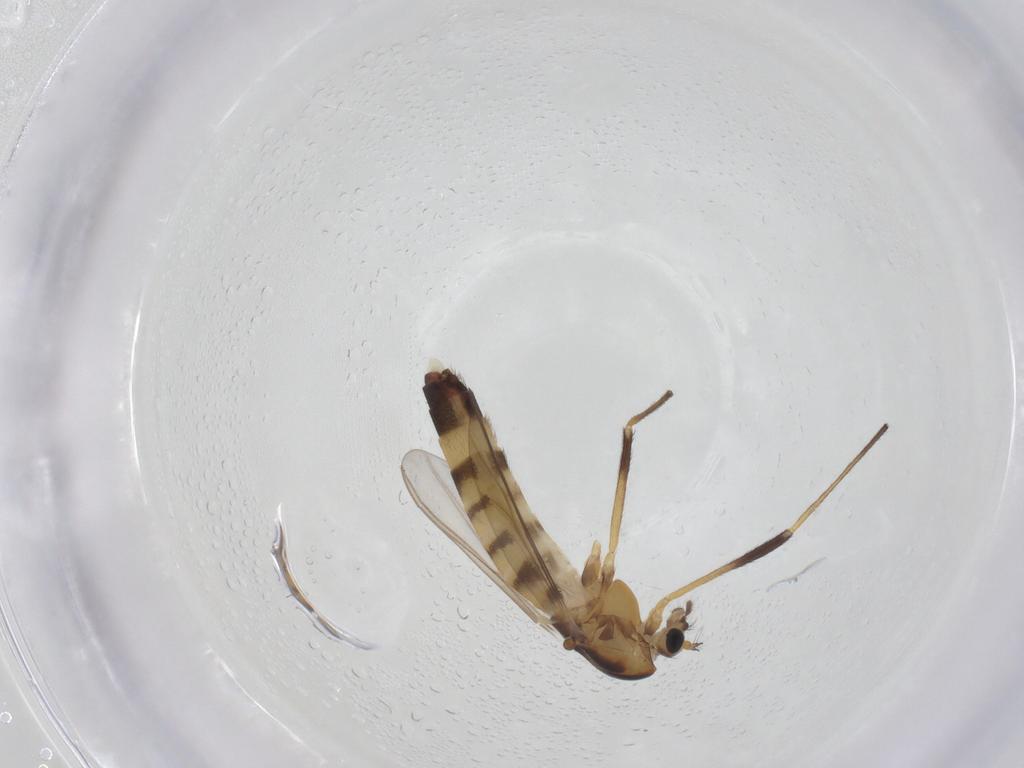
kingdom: Animalia
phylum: Arthropoda
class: Insecta
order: Diptera
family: Chironomidae
